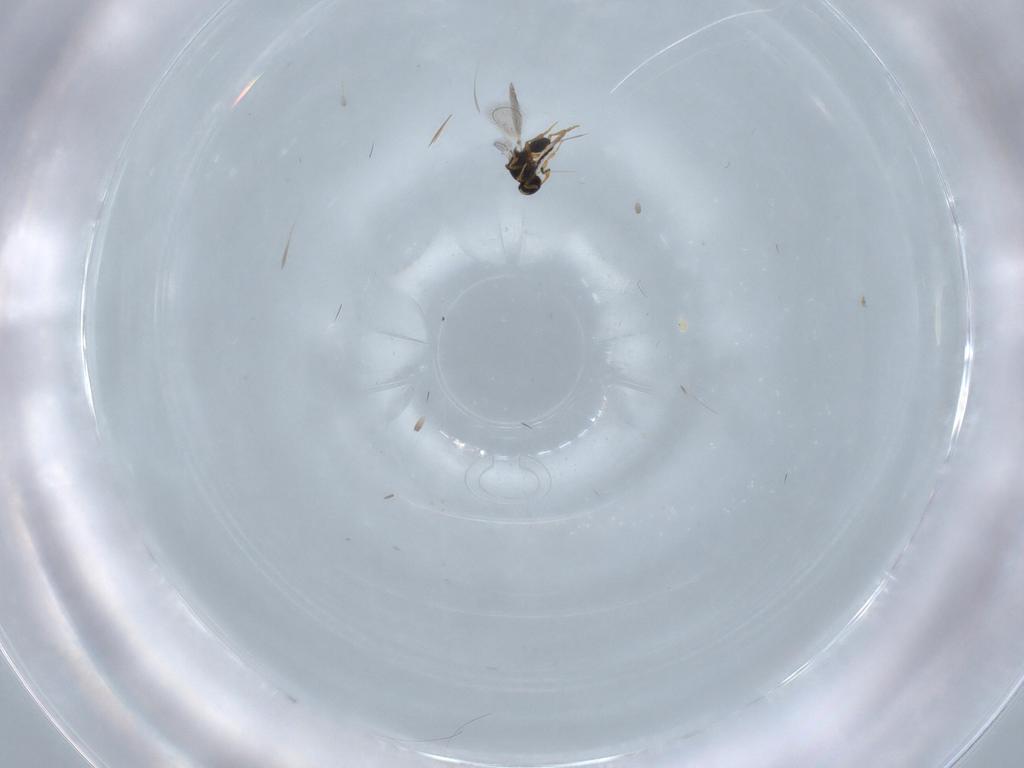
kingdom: Animalia
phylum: Arthropoda
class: Insecta
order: Hymenoptera
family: Platygastridae
